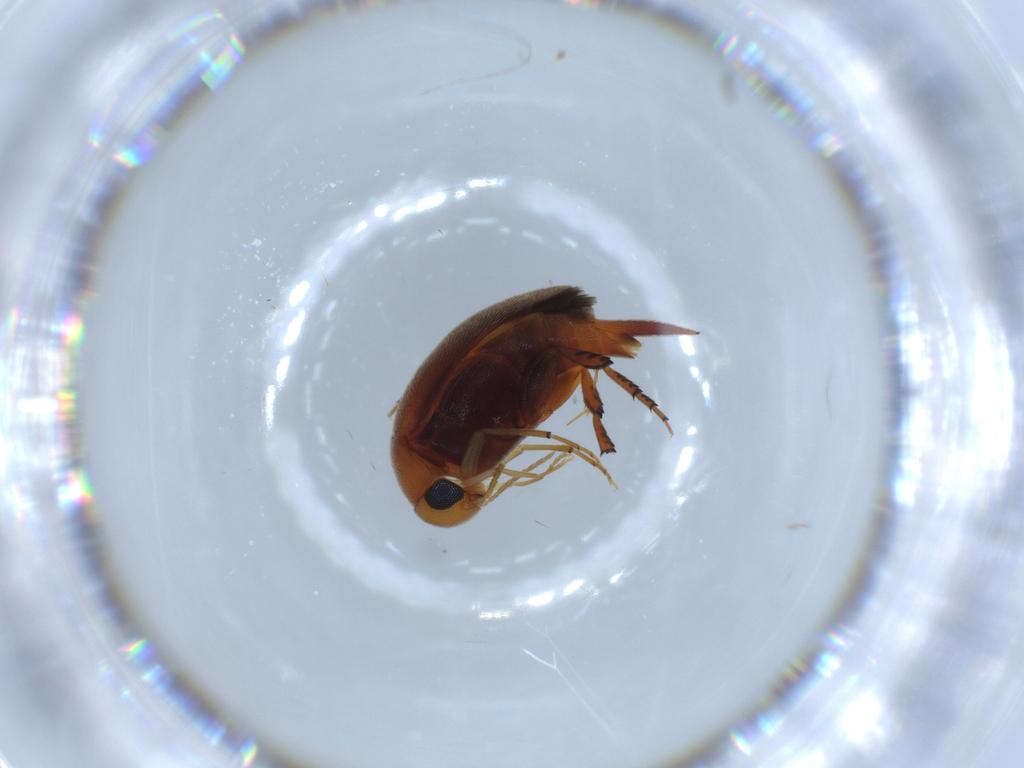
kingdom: Animalia
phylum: Arthropoda
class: Insecta
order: Coleoptera
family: Mordellidae
